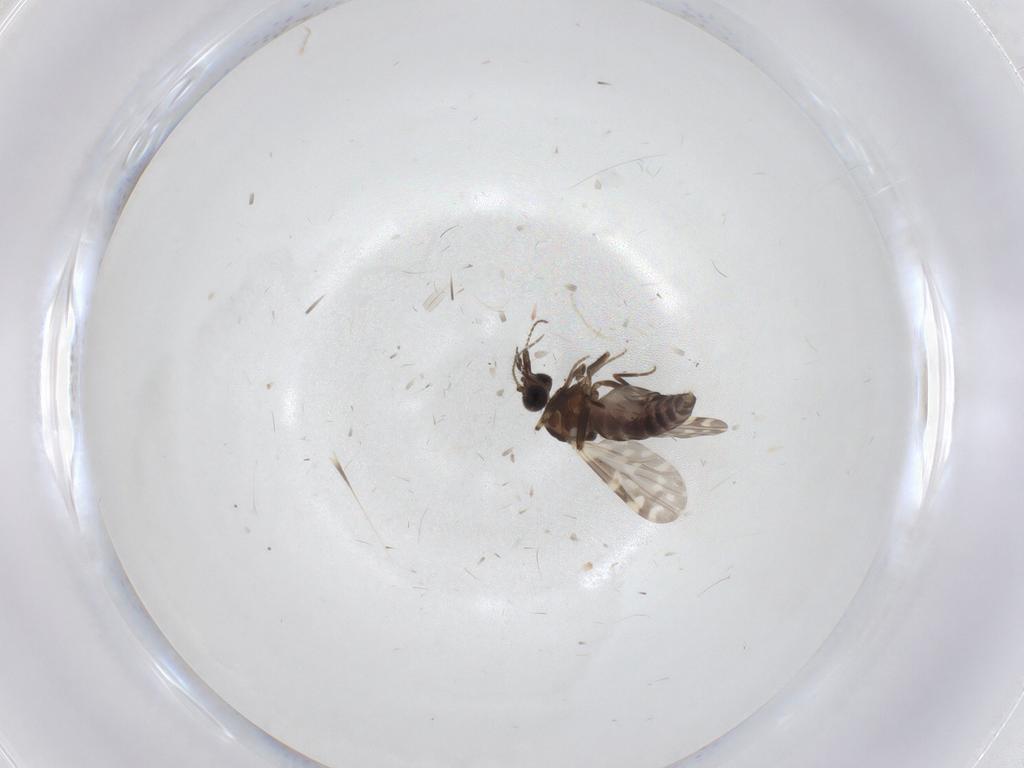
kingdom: Animalia
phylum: Arthropoda
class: Insecta
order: Diptera
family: Ceratopogonidae
